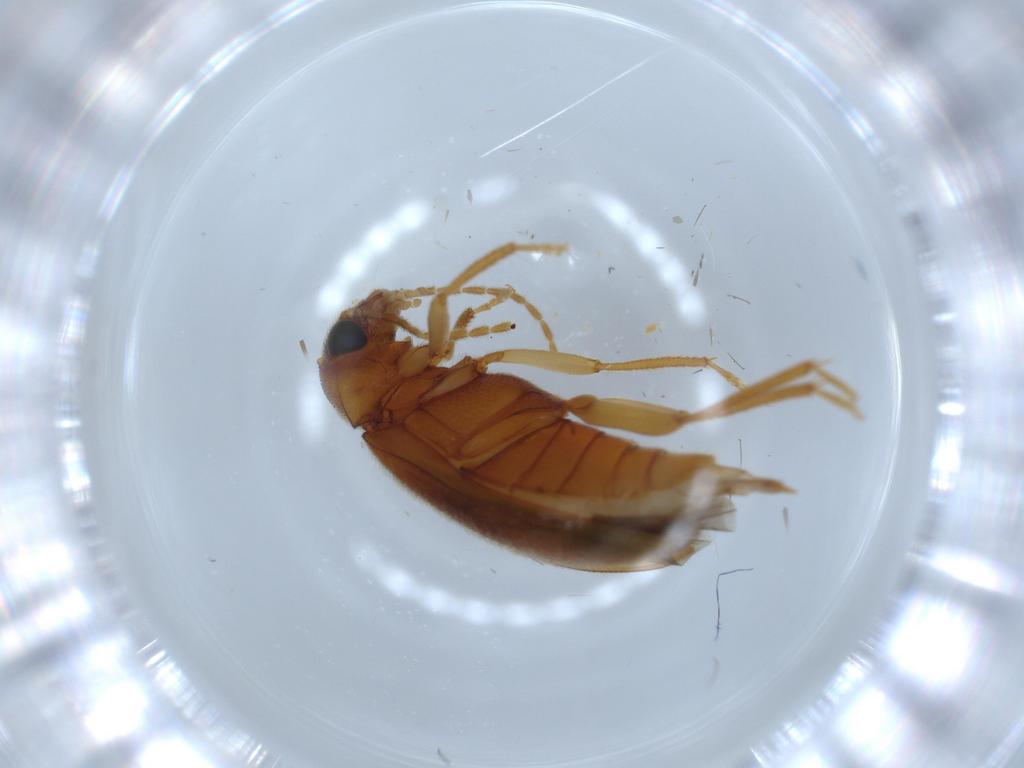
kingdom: Animalia
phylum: Arthropoda
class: Insecta
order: Coleoptera
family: Ptilodactylidae
